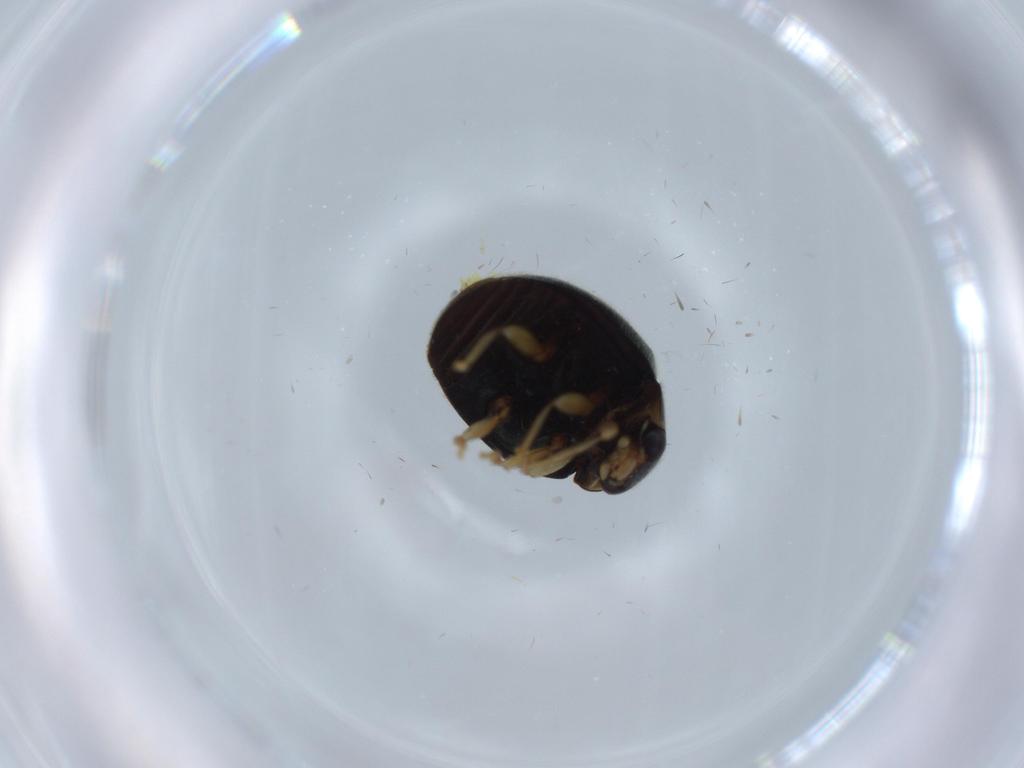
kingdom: Animalia
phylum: Arthropoda
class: Insecta
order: Coleoptera
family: Coccinellidae
